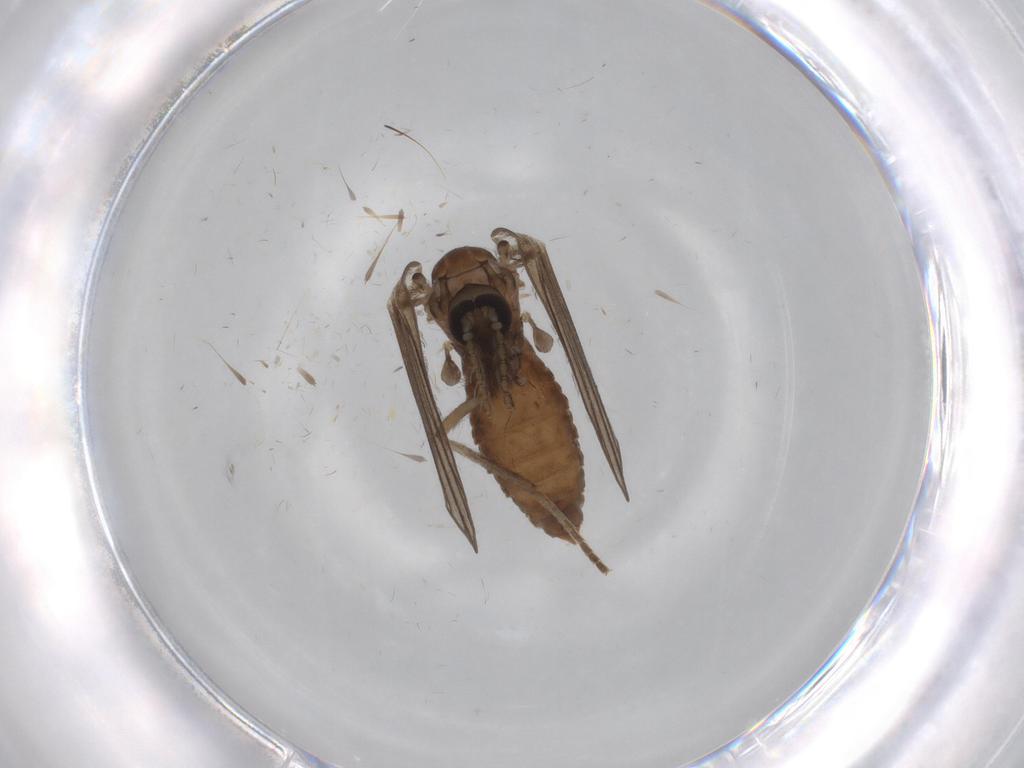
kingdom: Animalia
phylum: Arthropoda
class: Insecta
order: Diptera
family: Psychodidae
